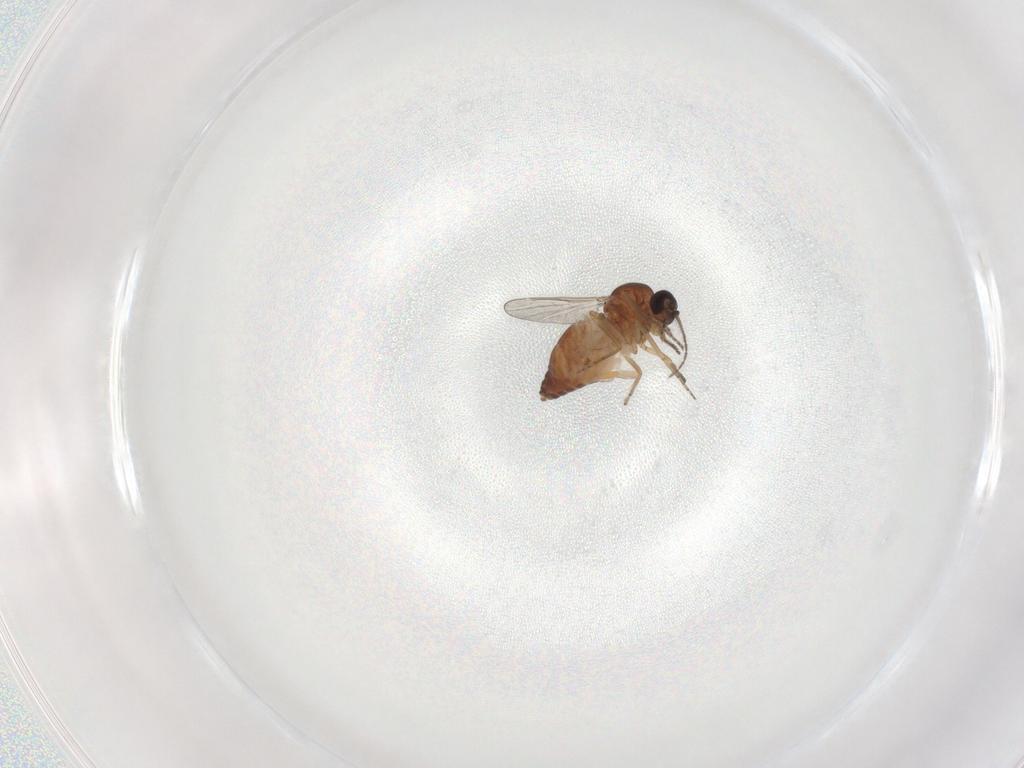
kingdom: Animalia
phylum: Arthropoda
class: Insecta
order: Diptera
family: Ceratopogonidae
